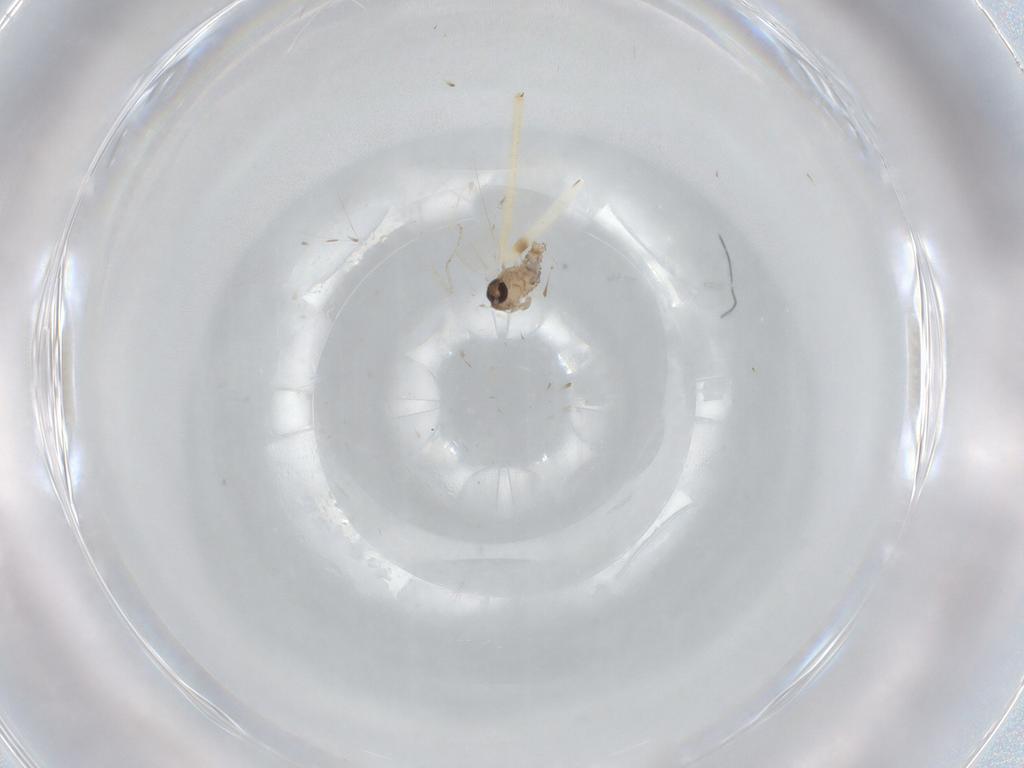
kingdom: Animalia
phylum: Arthropoda
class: Insecta
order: Diptera
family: Psychodidae
